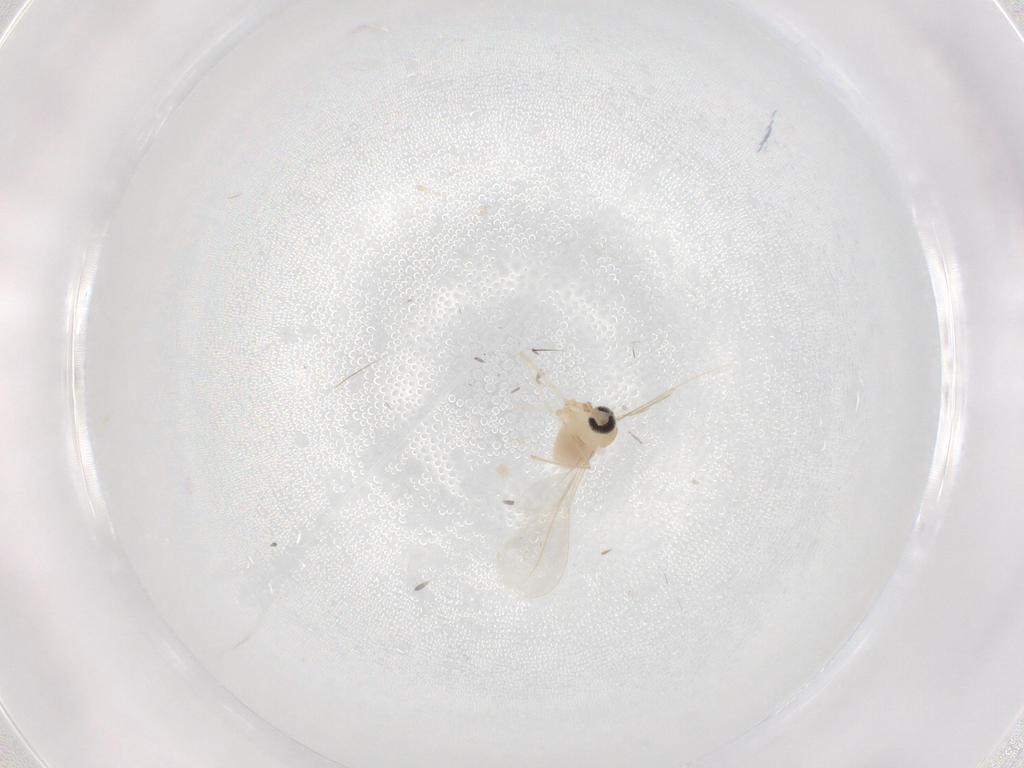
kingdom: Animalia
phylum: Arthropoda
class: Insecta
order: Diptera
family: Cecidomyiidae
